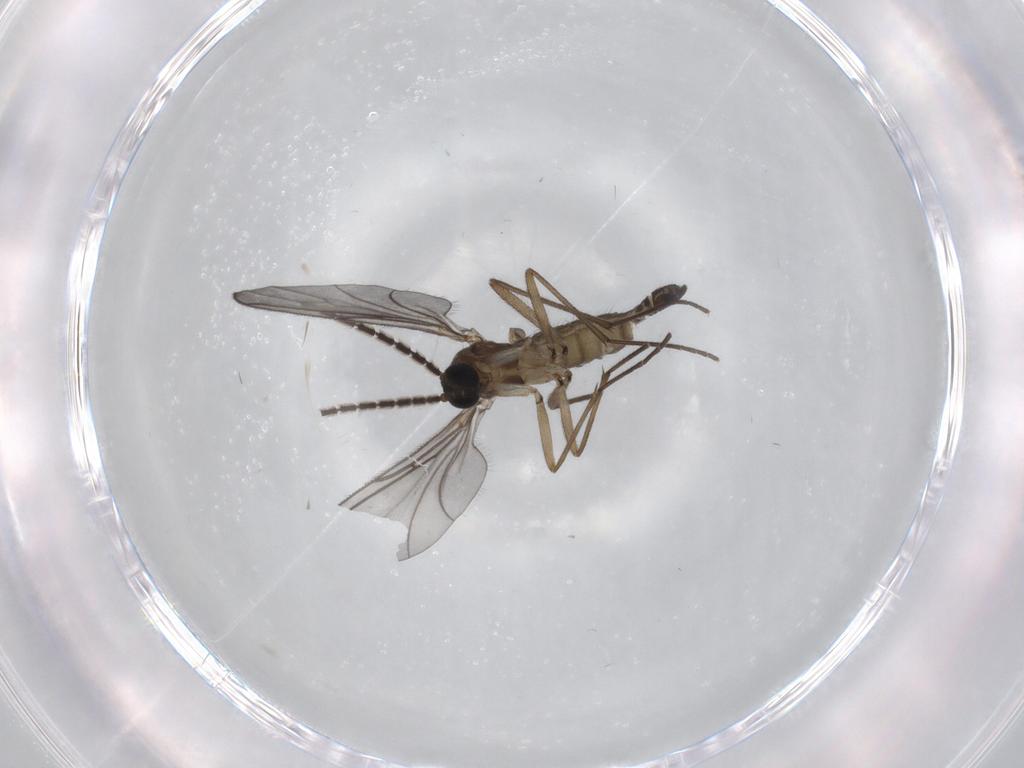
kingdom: Animalia
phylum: Arthropoda
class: Insecta
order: Diptera
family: Sciaridae
